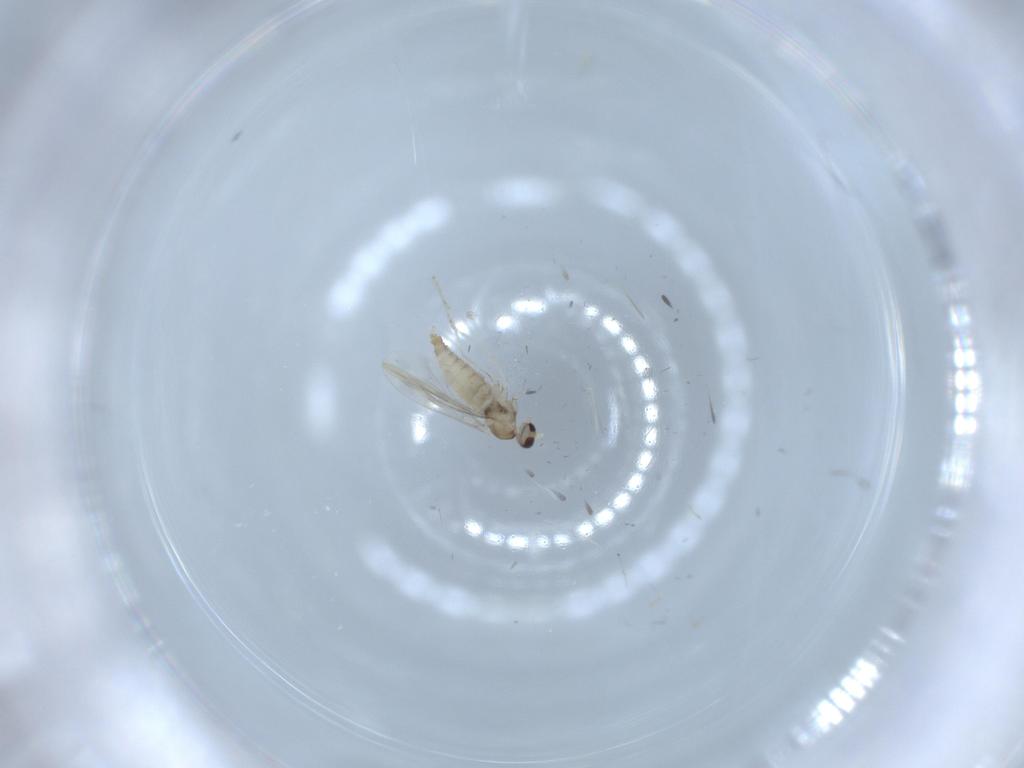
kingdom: Animalia
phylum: Arthropoda
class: Insecta
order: Diptera
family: Cecidomyiidae
